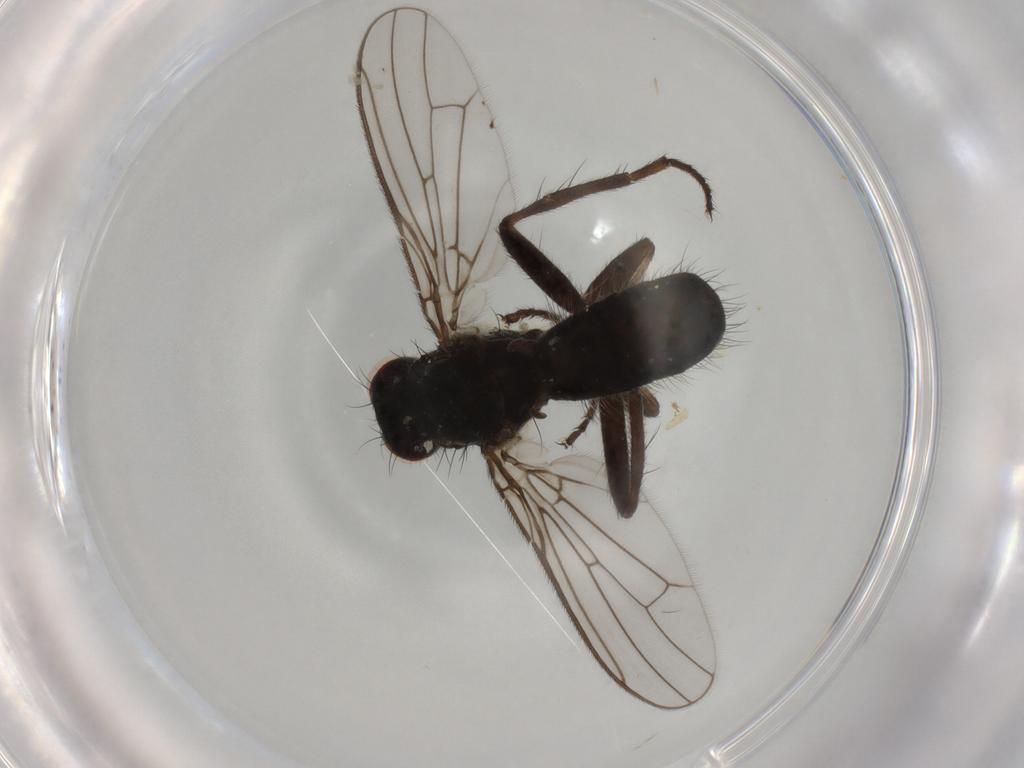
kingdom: Animalia
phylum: Arthropoda
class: Insecta
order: Diptera
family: Scathophagidae
